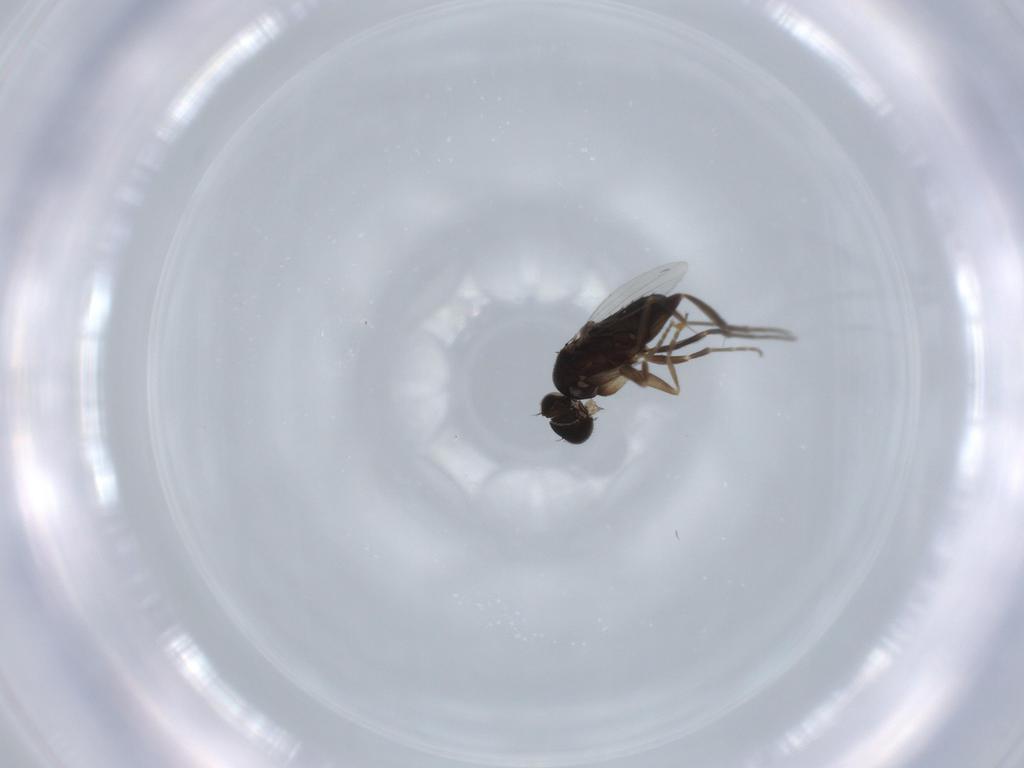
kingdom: Animalia
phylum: Arthropoda
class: Insecta
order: Diptera
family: Phoridae
